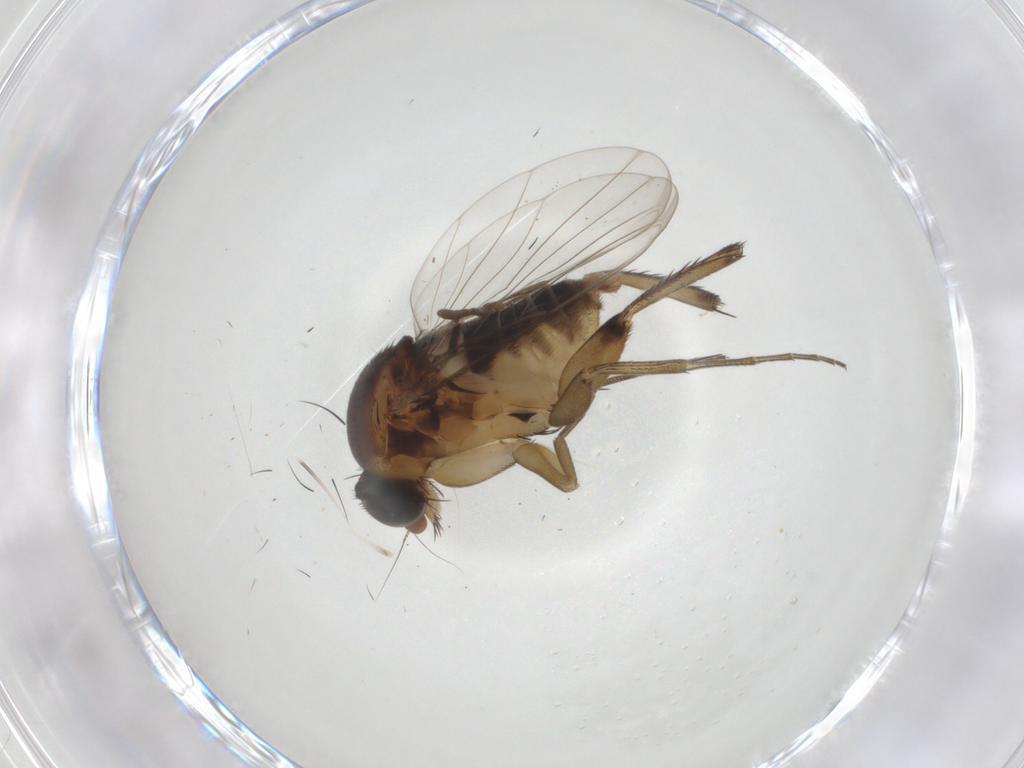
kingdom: Animalia
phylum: Arthropoda
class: Insecta
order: Diptera
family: Phoridae
